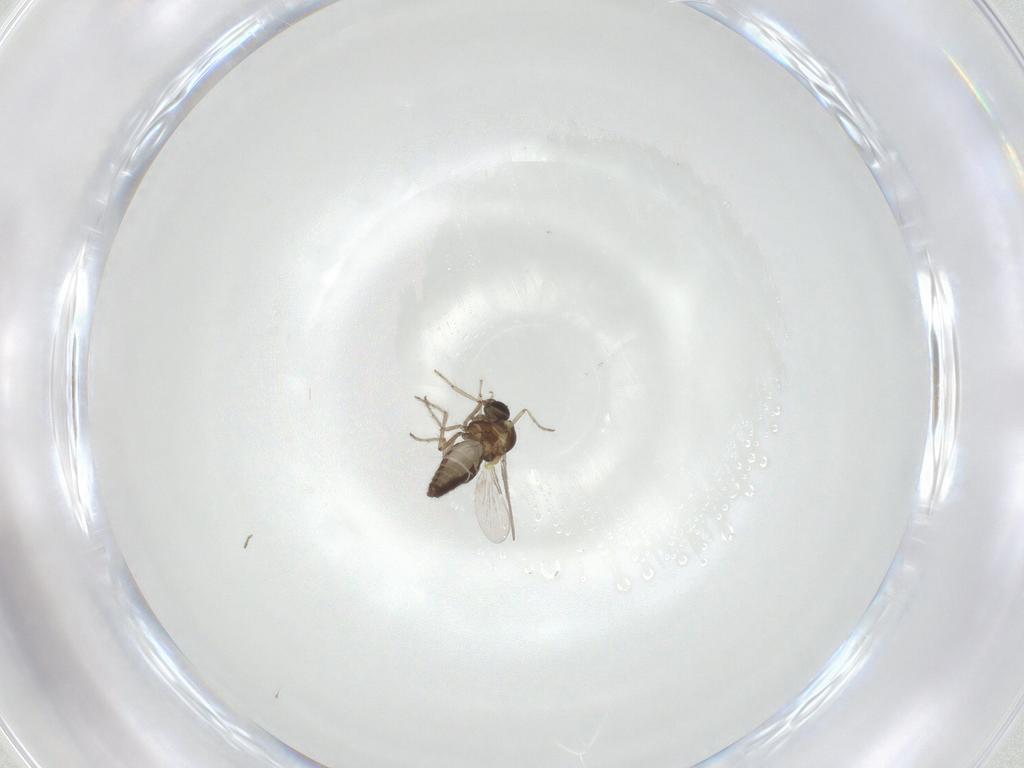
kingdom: Animalia
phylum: Arthropoda
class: Insecta
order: Diptera
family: Ceratopogonidae
